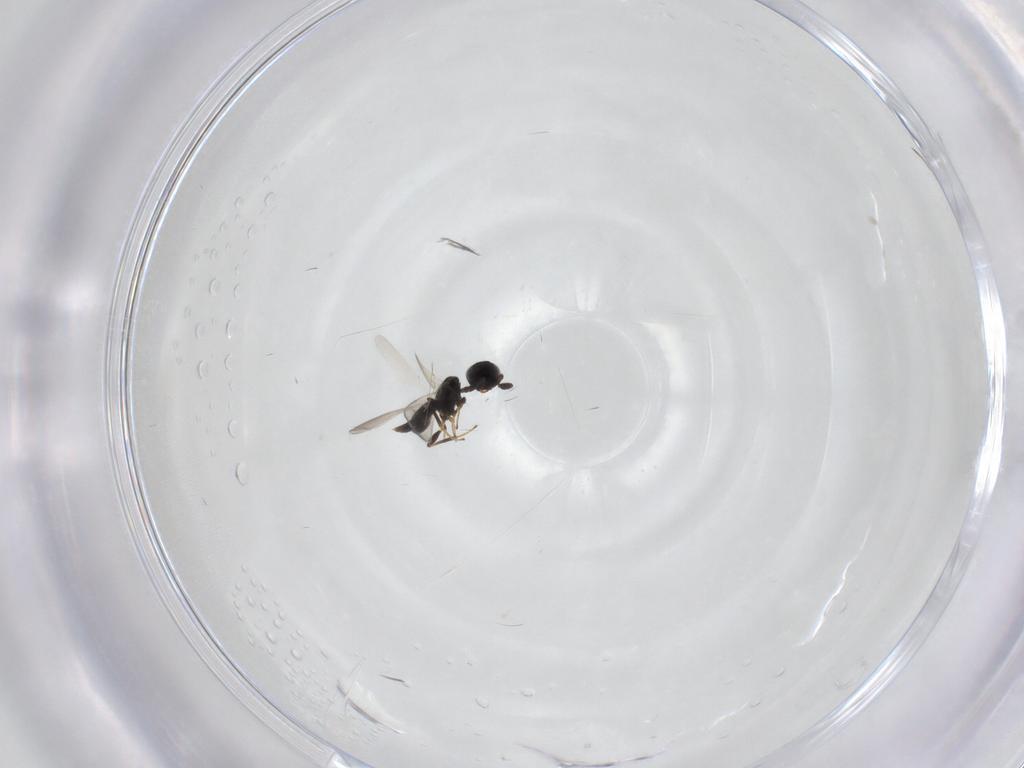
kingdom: Animalia
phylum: Arthropoda
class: Insecta
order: Hymenoptera
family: Platygastridae
